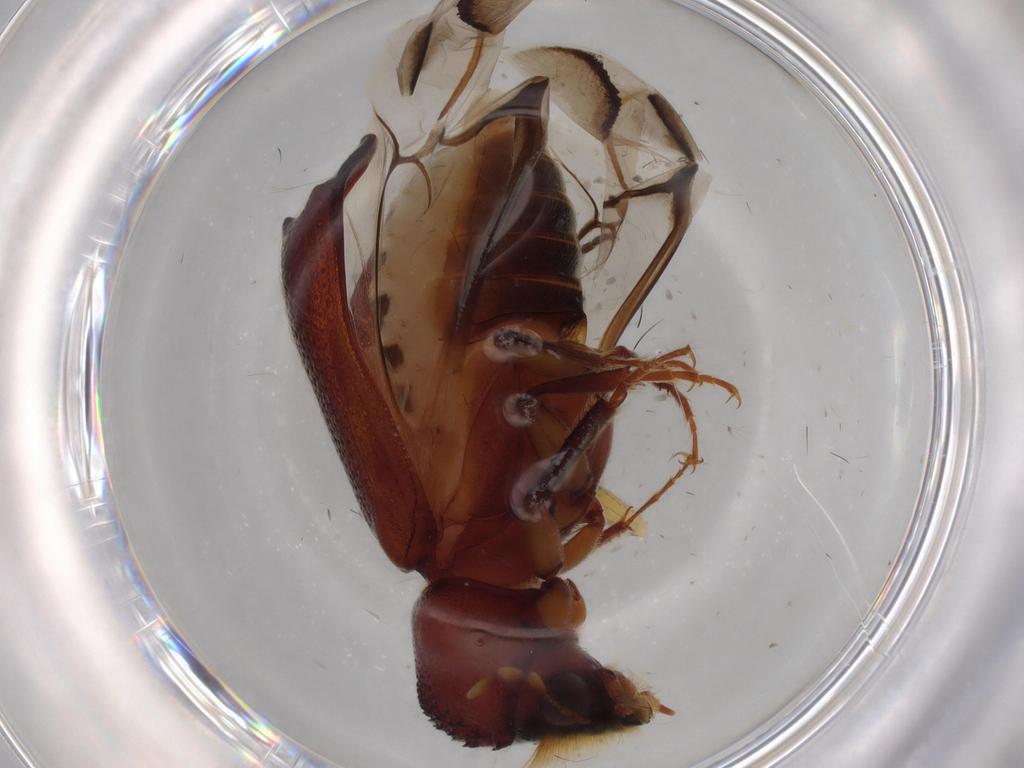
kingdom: Animalia
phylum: Arthropoda
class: Insecta
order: Coleoptera
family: Bostrichidae
